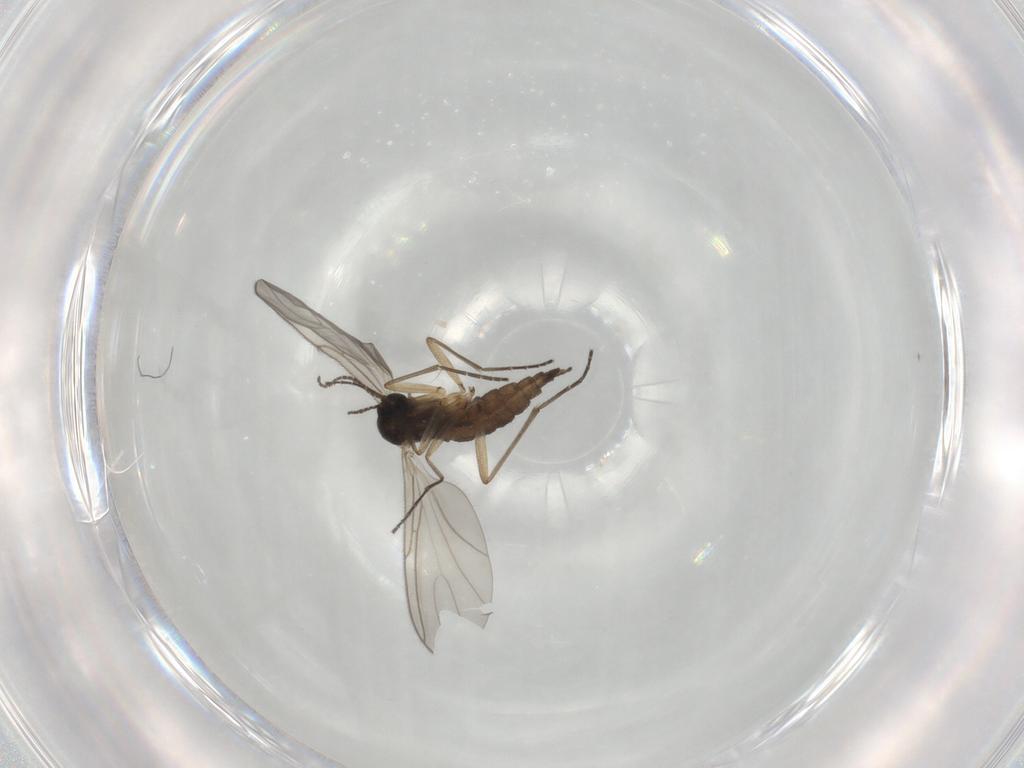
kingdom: Animalia
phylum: Arthropoda
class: Insecta
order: Diptera
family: Sciaridae
